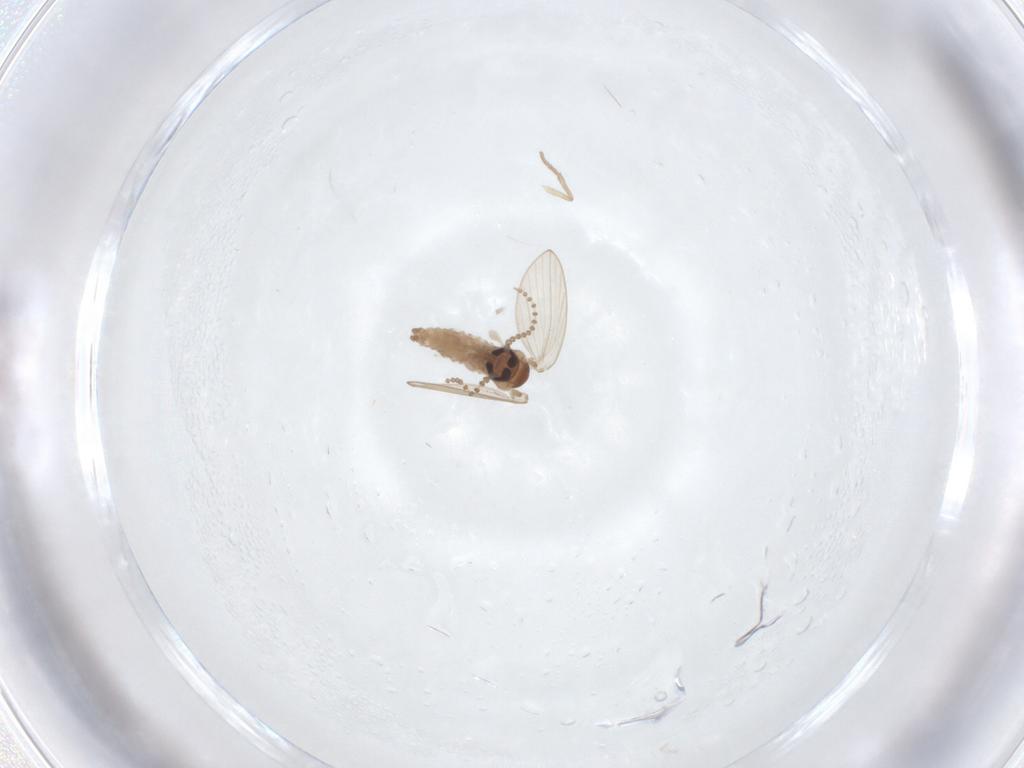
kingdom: Animalia
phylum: Arthropoda
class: Insecta
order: Diptera
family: Psychodidae
